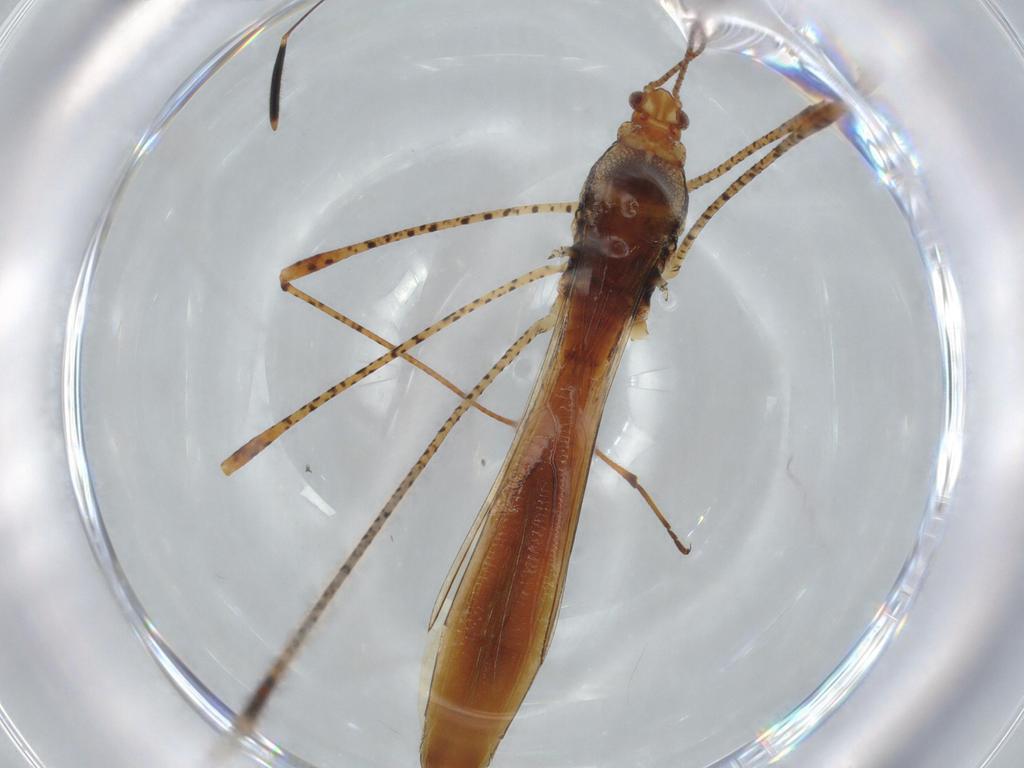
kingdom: Animalia
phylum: Arthropoda
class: Insecta
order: Hemiptera
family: Berytidae
